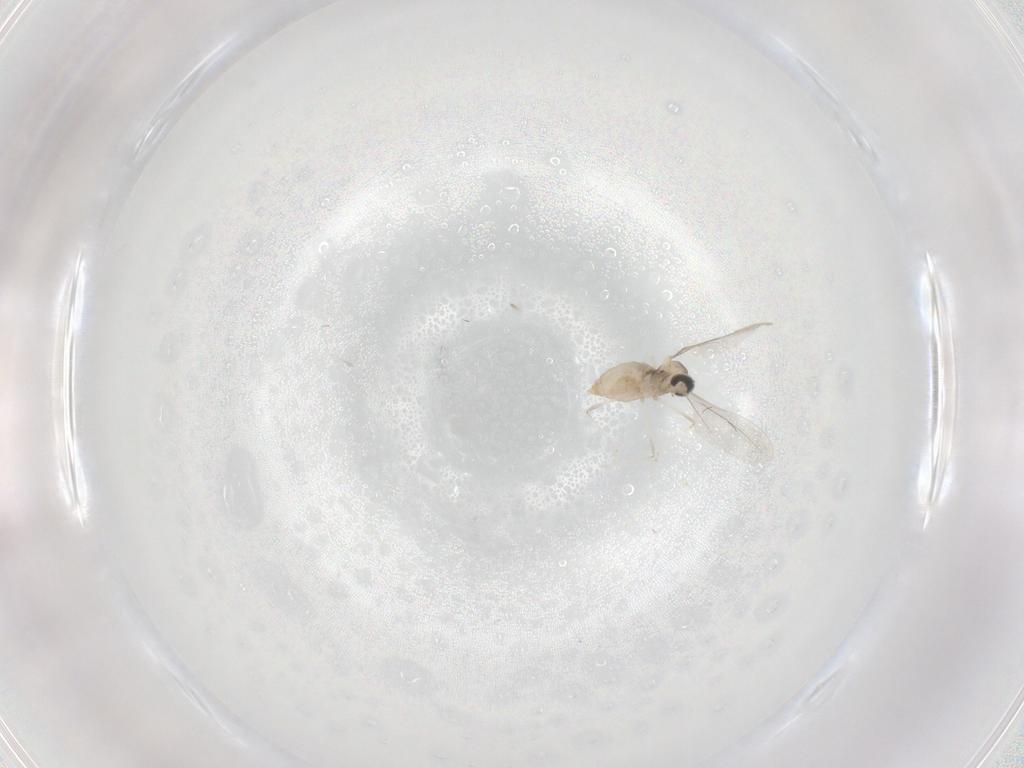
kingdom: Animalia
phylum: Arthropoda
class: Insecta
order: Diptera
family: Cecidomyiidae
